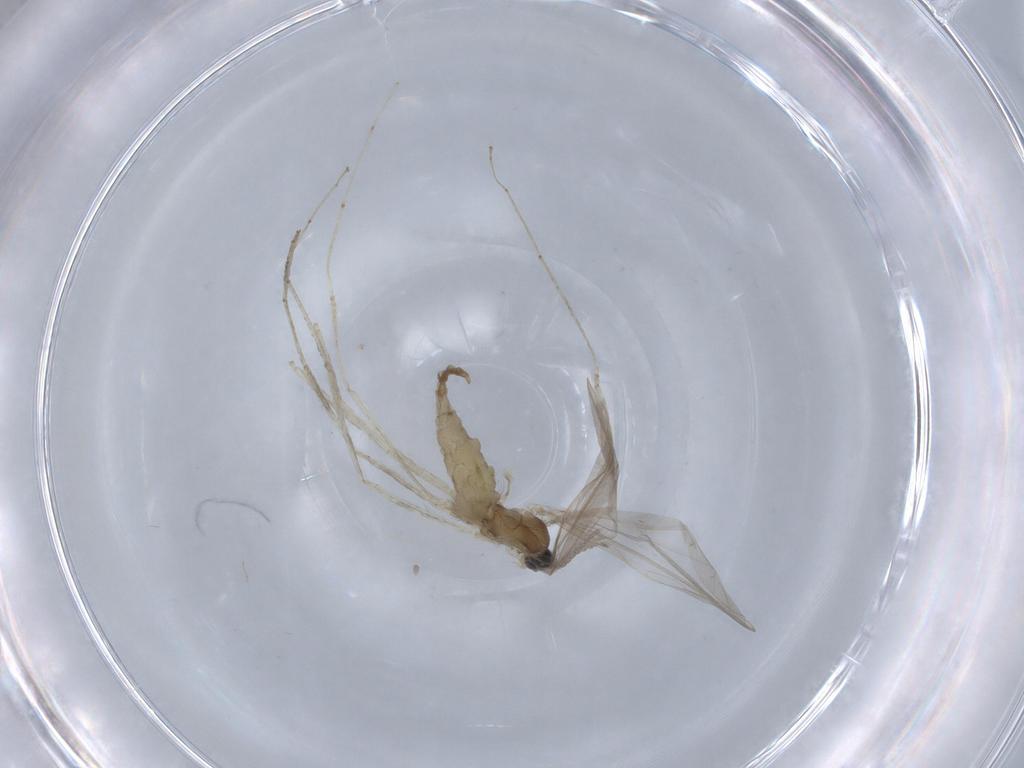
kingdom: Animalia
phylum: Arthropoda
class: Insecta
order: Diptera
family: Cecidomyiidae
